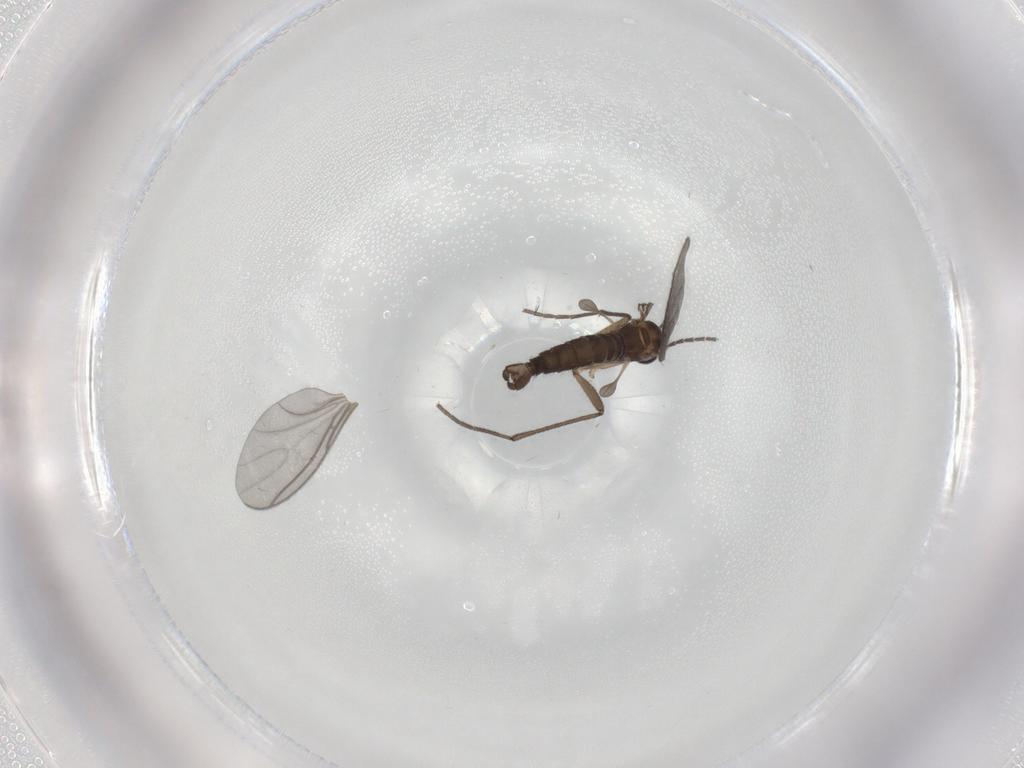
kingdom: Animalia
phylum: Arthropoda
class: Insecta
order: Diptera
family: Sciaridae
